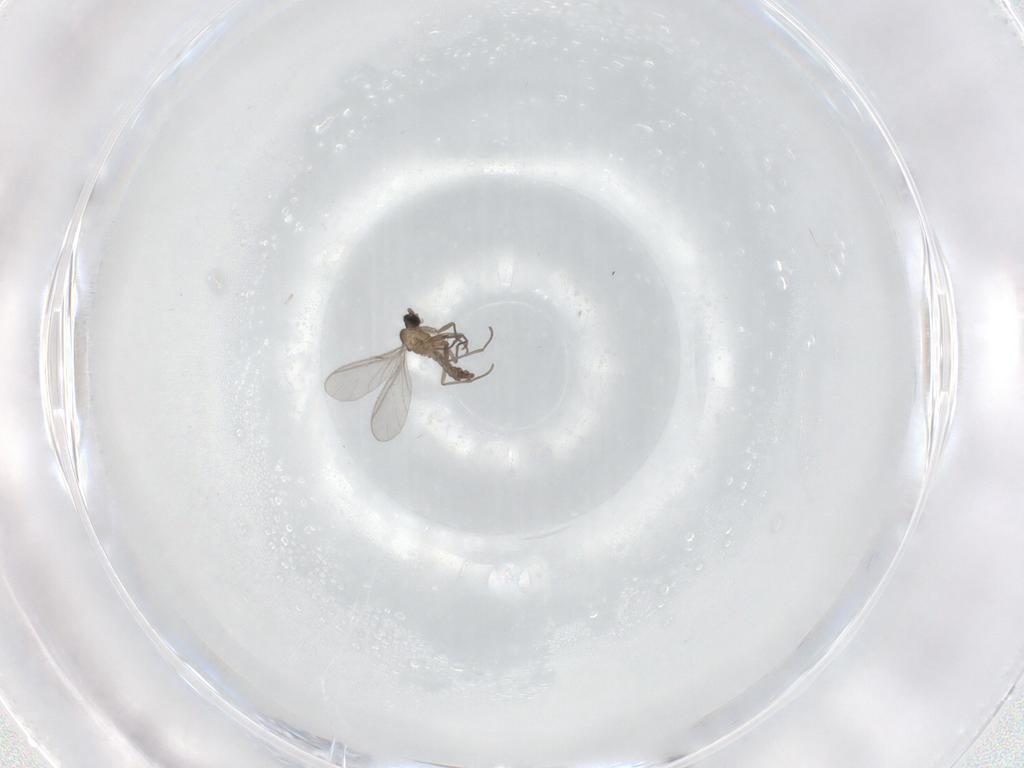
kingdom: Animalia
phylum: Arthropoda
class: Insecta
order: Diptera
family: Sciaridae
